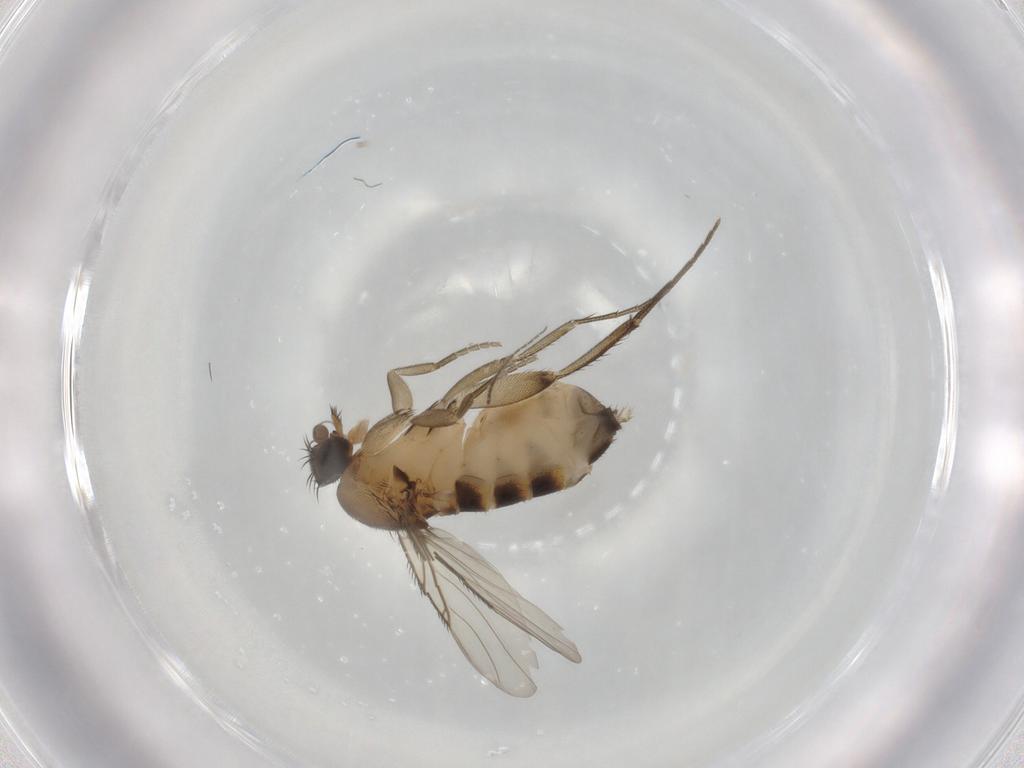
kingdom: Animalia
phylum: Arthropoda
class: Insecta
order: Diptera
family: Phoridae
